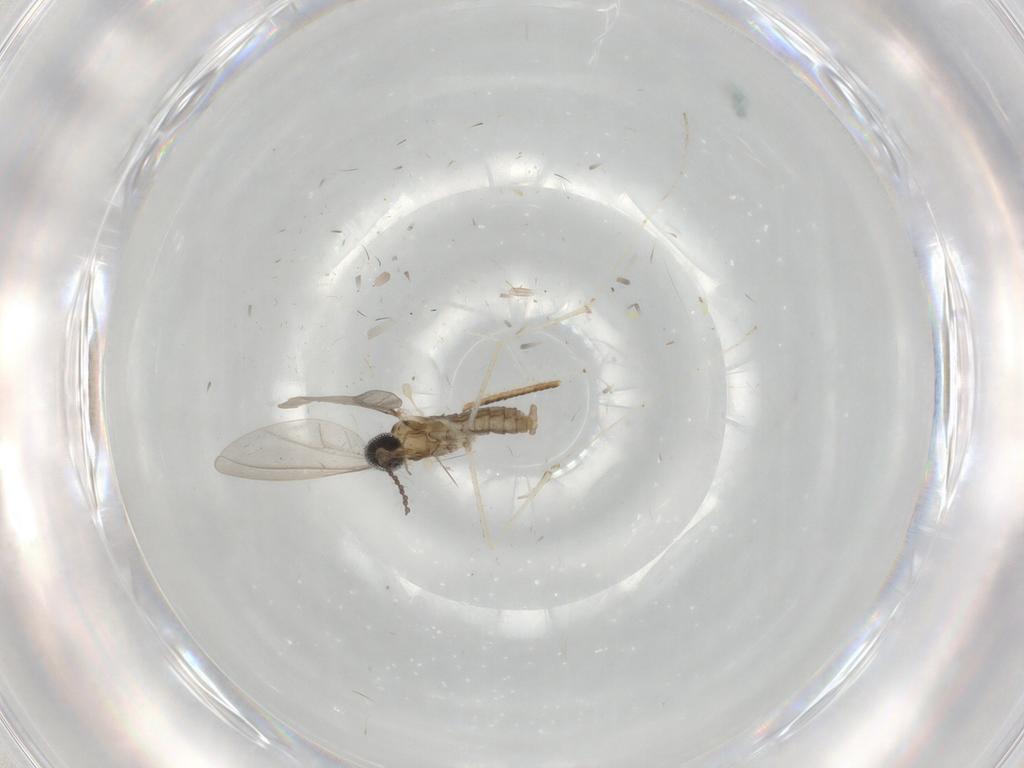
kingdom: Animalia
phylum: Arthropoda
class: Insecta
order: Diptera
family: Cecidomyiidae
